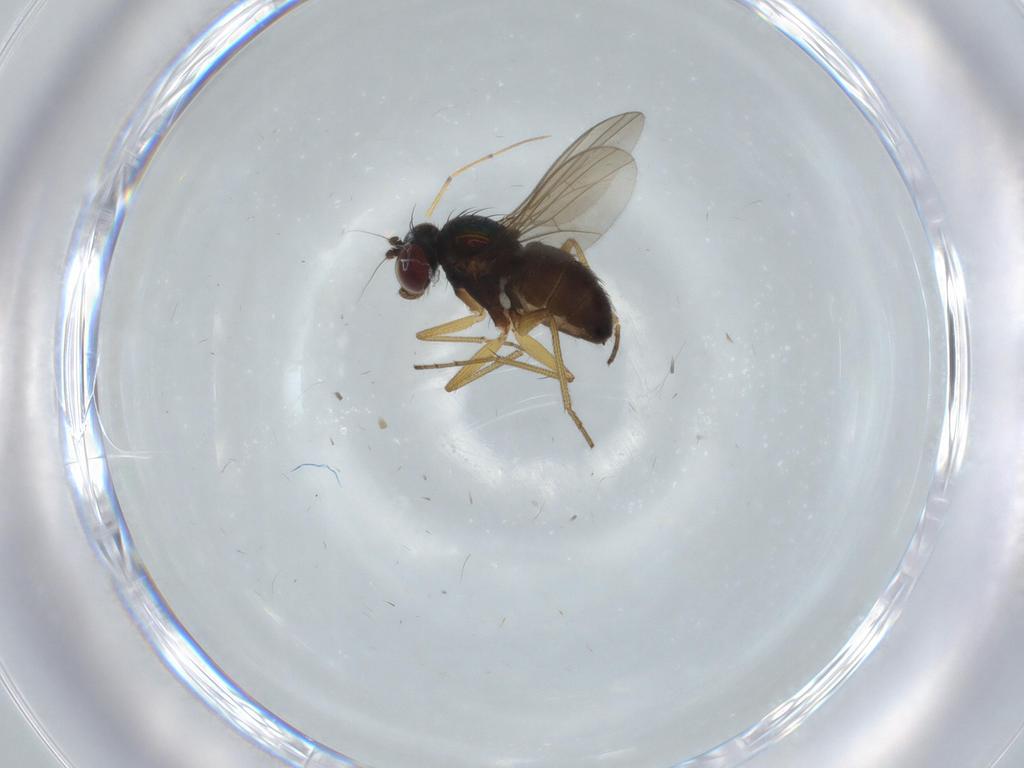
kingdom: Animalia
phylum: Arthropoda
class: Insecta
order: Diptera
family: Dolichopodidae
